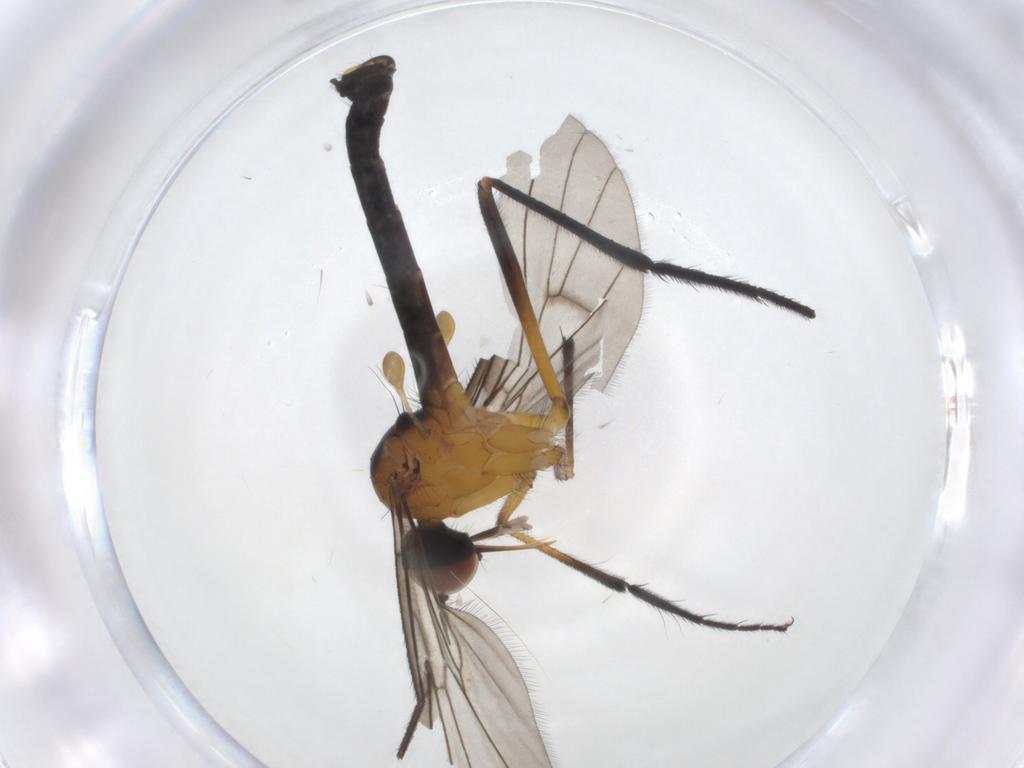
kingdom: Animalia
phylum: Arthropoda
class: Insecta
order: Diptera
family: Empididae
